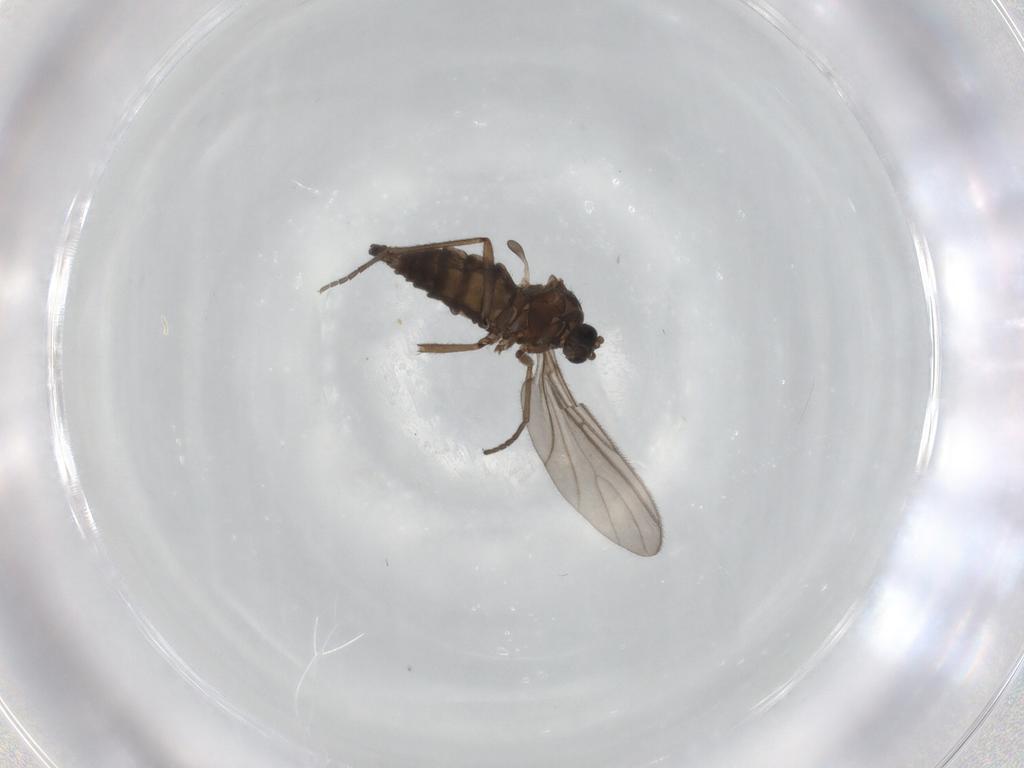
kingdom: Animalia
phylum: Arthropoda
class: Insecta
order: Diptera
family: Sciaridae
